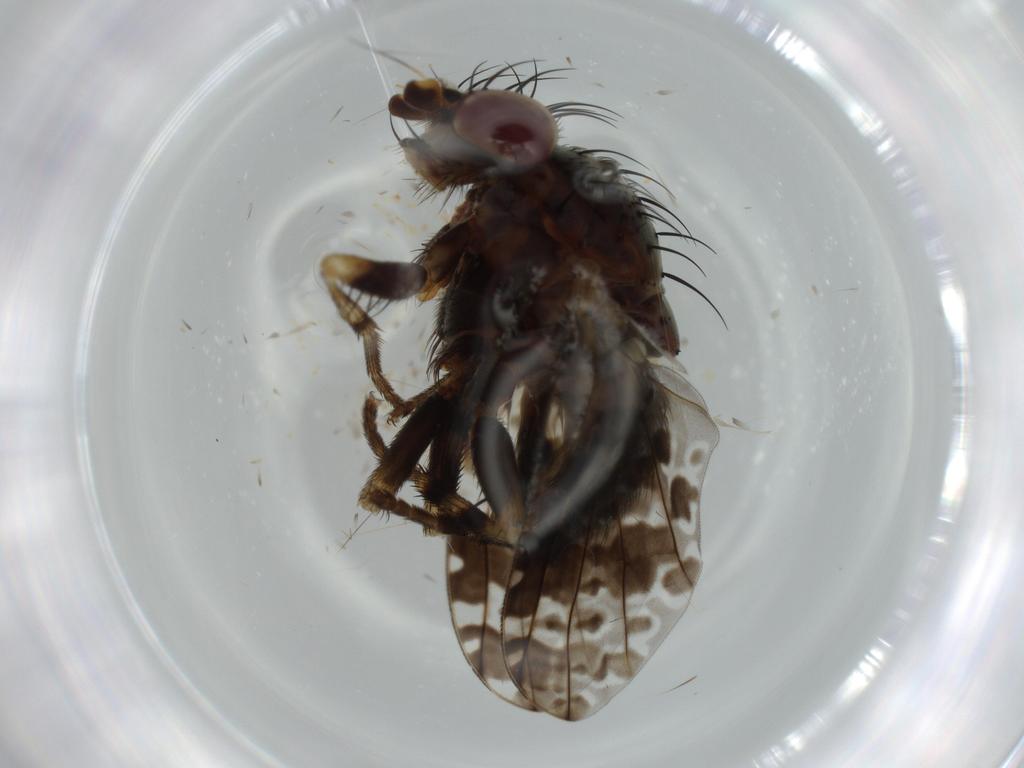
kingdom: Animalia
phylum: Arthropoda
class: Insecta
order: Diptera
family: Odiniidae
